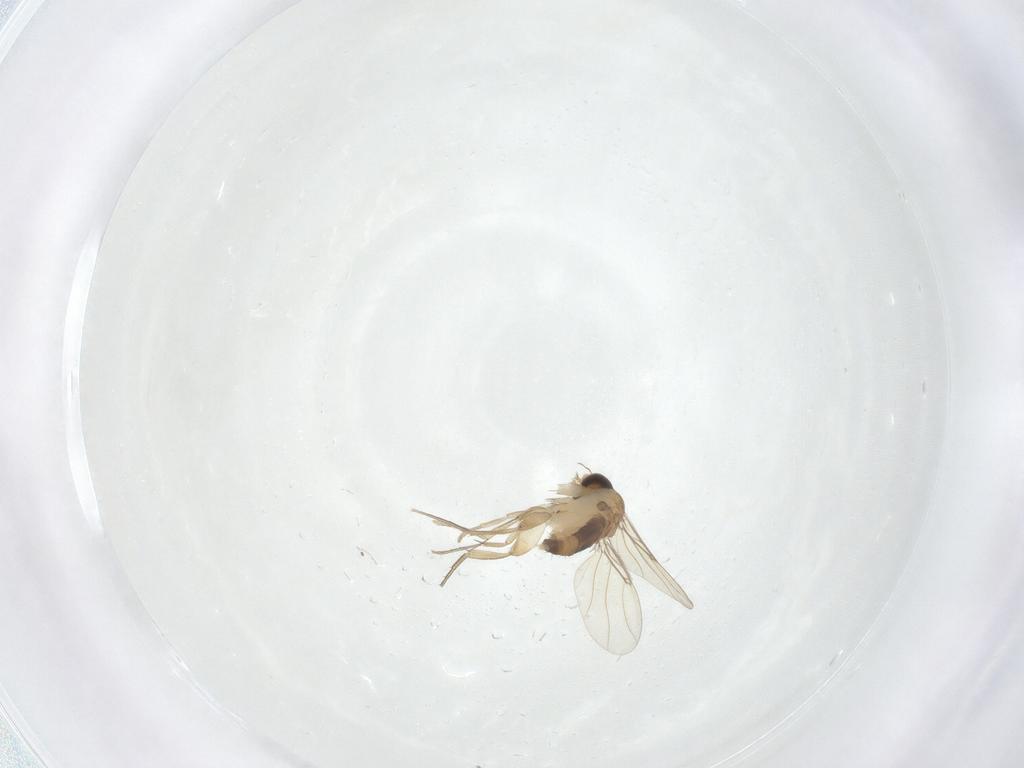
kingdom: Animalia
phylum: Arthropoda
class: Insecta
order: Diptera
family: Phoridae
